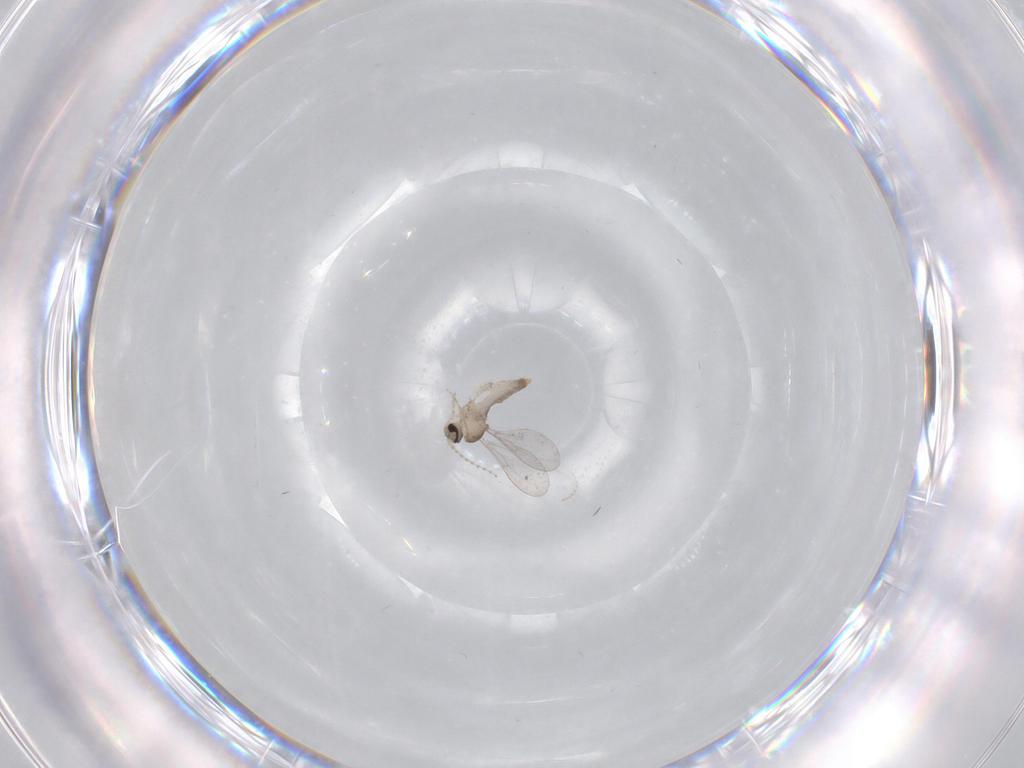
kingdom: Animalia
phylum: Arthropoda
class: Insecta
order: Diptera
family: Cecidomyiidae
